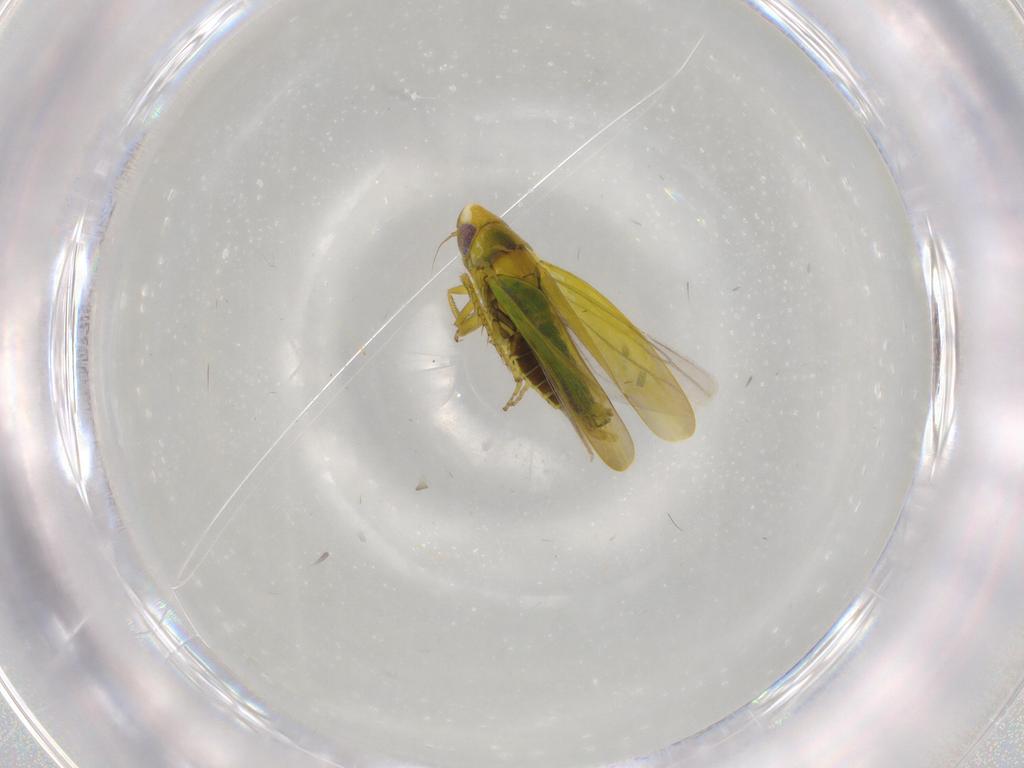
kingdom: Animalia
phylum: Arthropoda
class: Insecta
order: Hemiptera
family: Cicadellidae
